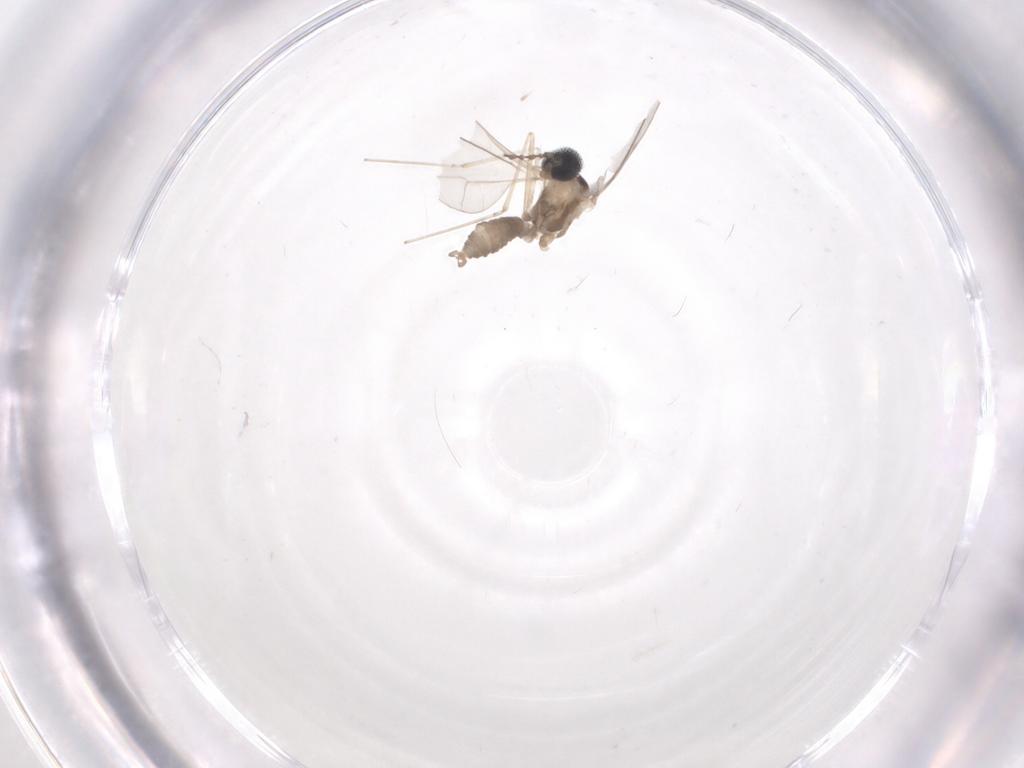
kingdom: Animalia
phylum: Arthropoda
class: Insecta
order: Diptera
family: Cecidomyiidae
